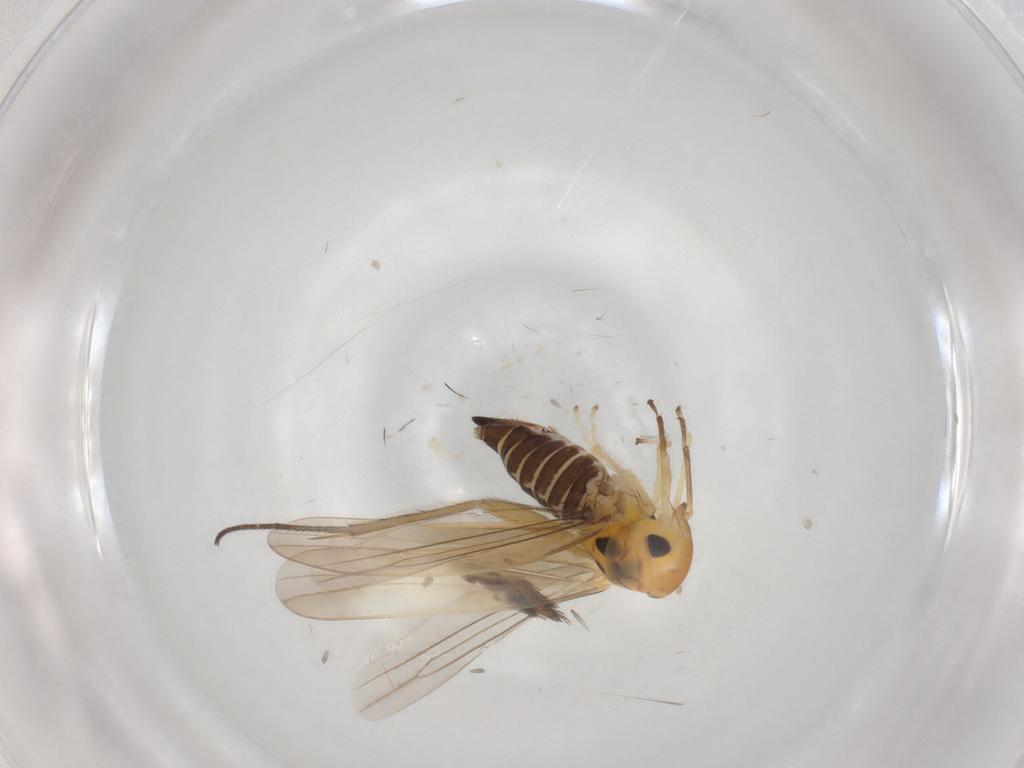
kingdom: Animalia
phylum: Arthropoda
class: Insecta
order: Hemiptera
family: Cicadellidae
